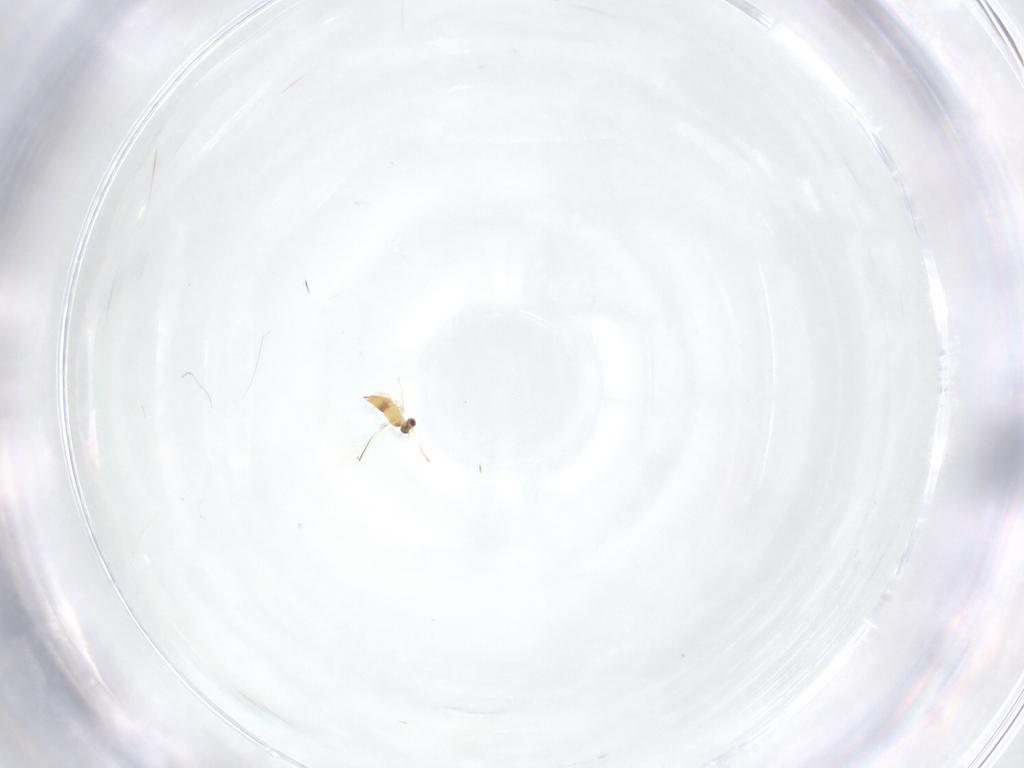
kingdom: Animalia
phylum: Arthropoda
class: Insecta
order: Hymenoptera
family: Mymaridae
